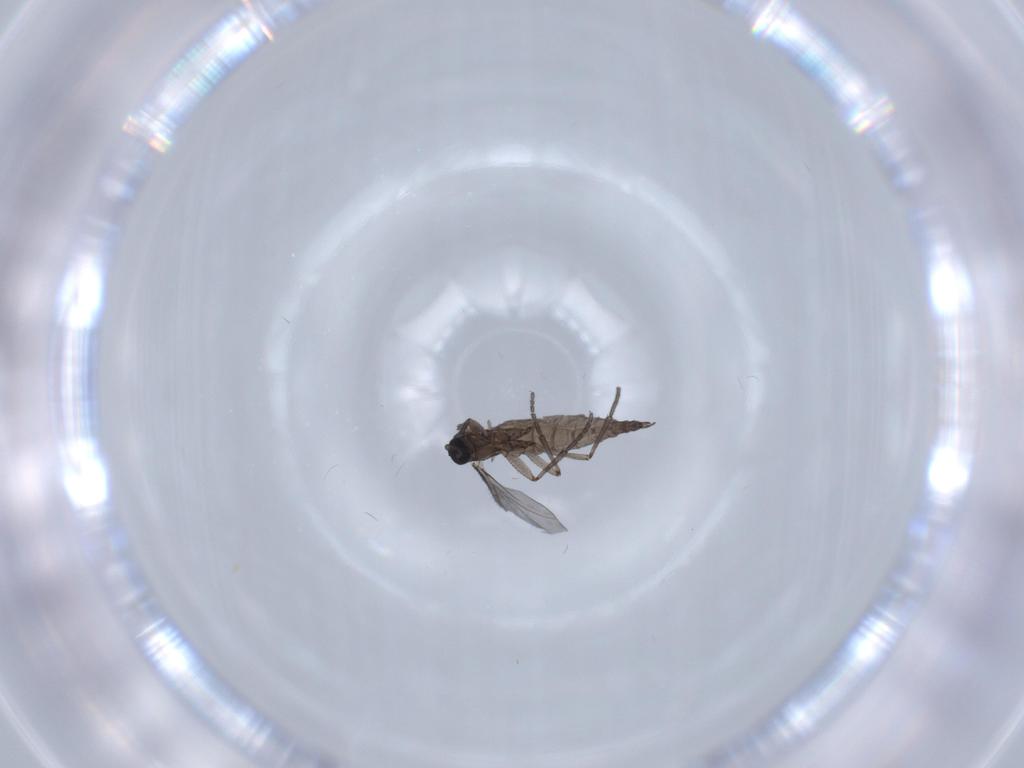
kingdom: Animalia
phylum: Arthropoda
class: Insecta
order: Diptera
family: Sciaridae
